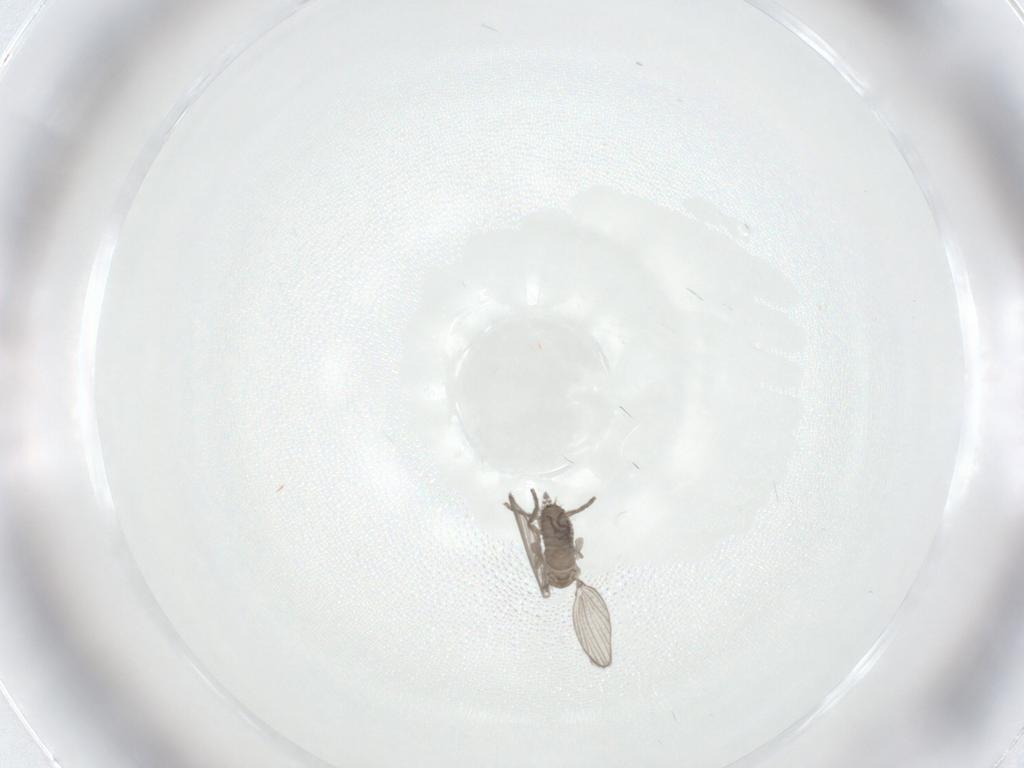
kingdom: Animalia
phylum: Arthropoda
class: Insecta
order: Diptera
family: Psychodidae
